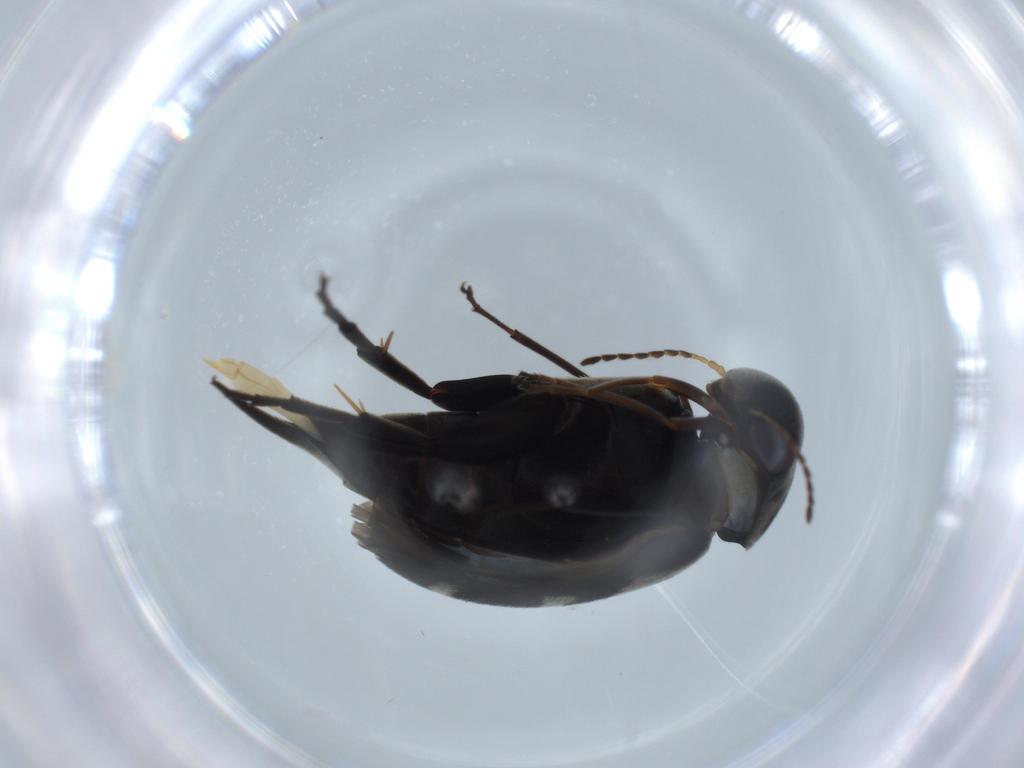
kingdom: Animalia
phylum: Arthropoda
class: Insecta
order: Coleoptera
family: Mordellidae
